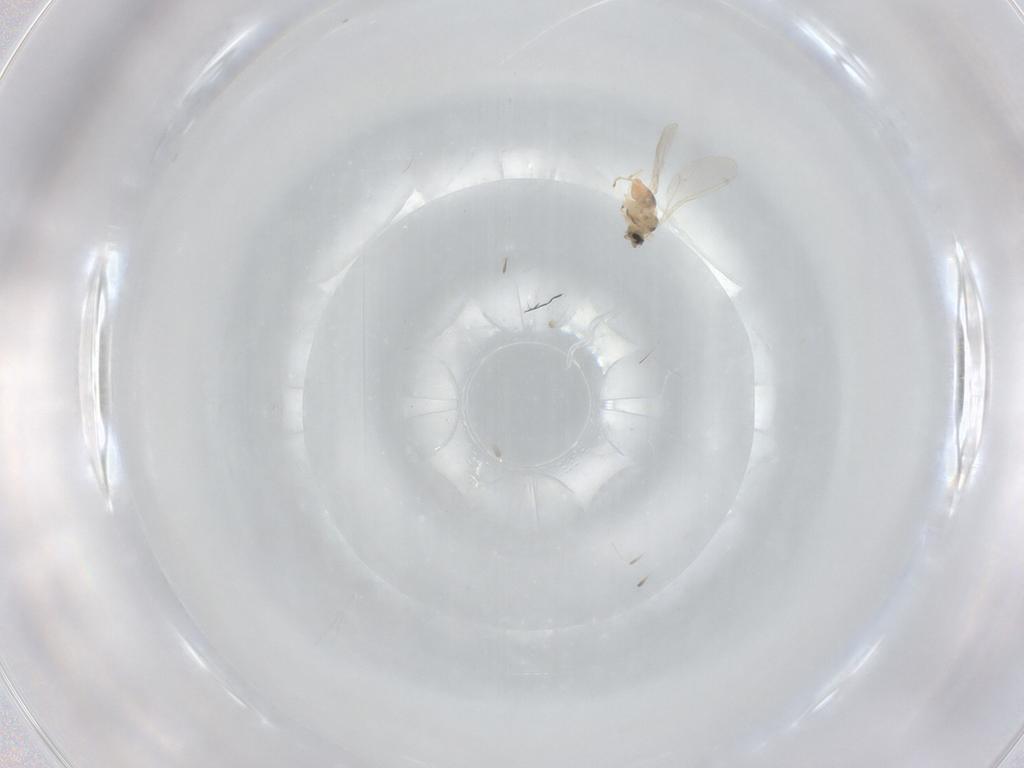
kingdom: Animalia
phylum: Arthropoda
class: Insecta
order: Diptera
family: Cecidomyiidae
